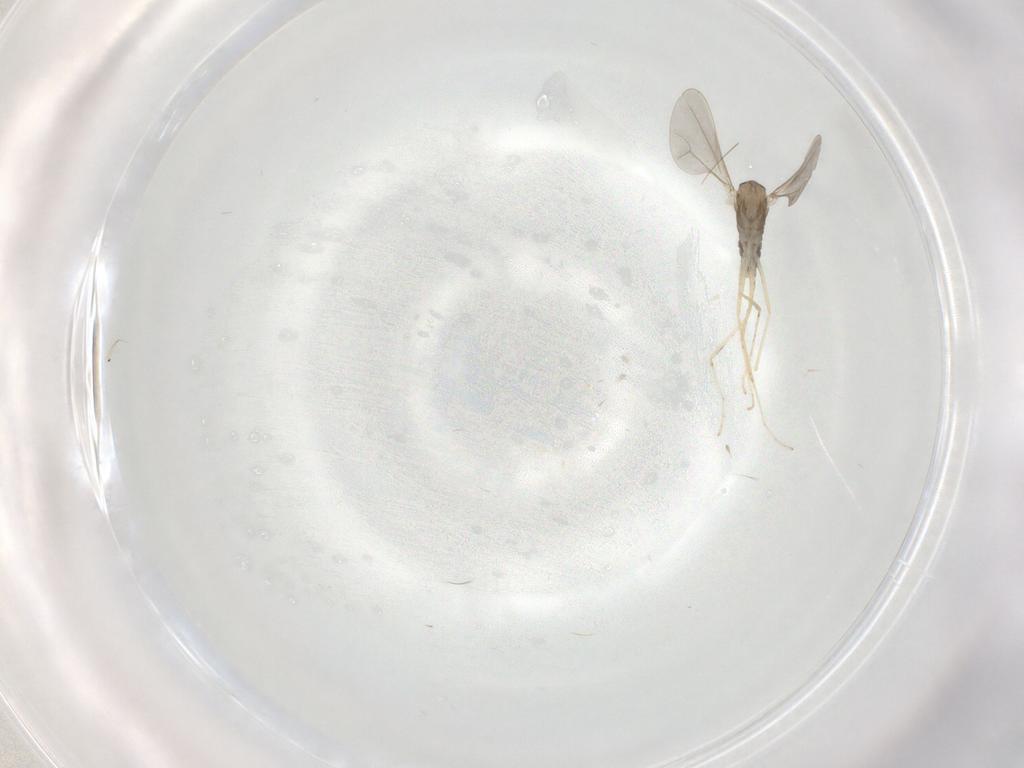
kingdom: Animalia
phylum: Arthropoda
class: Insecta
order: Diptera
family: Cecidomyiidae
